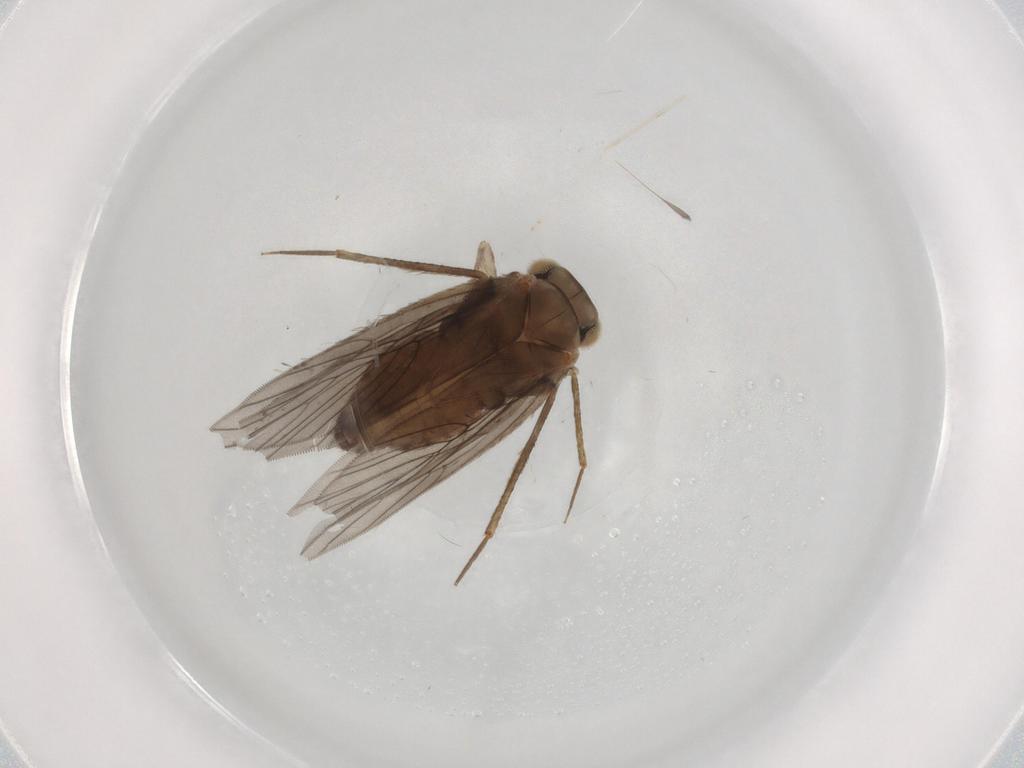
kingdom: Animalia
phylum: Arthropoda
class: Insecta
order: Psocodea
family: Lepidopsocidae
